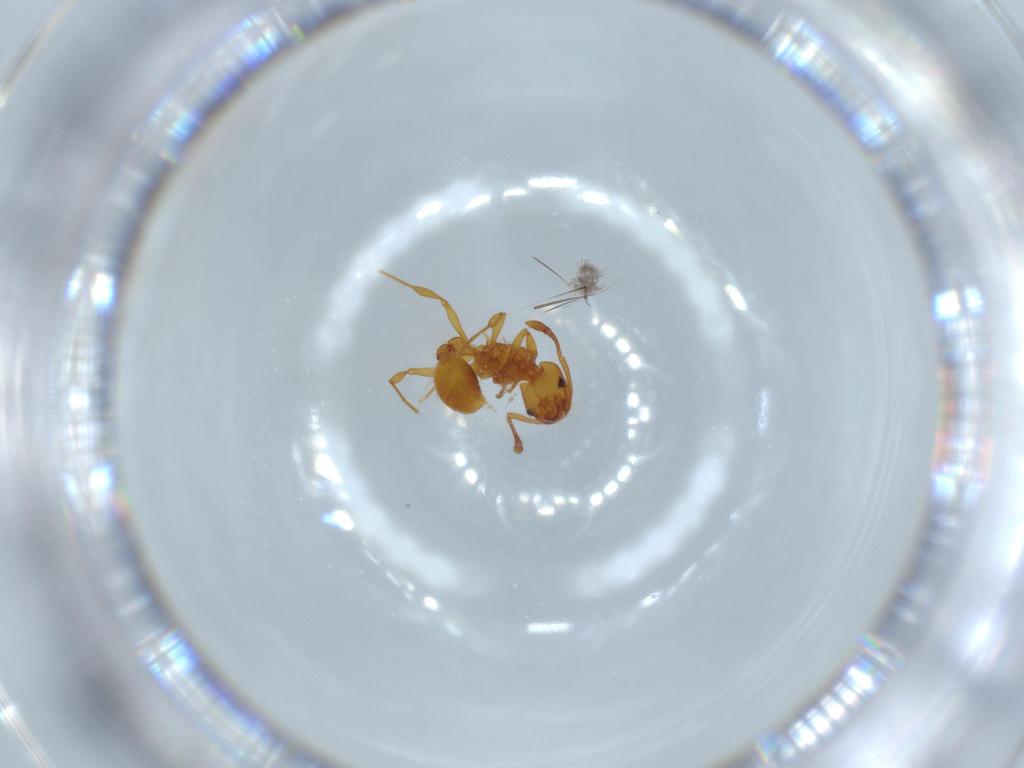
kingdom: Animalia
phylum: Arthropoda
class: Insecta
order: Hymenoptera
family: Formicidae
